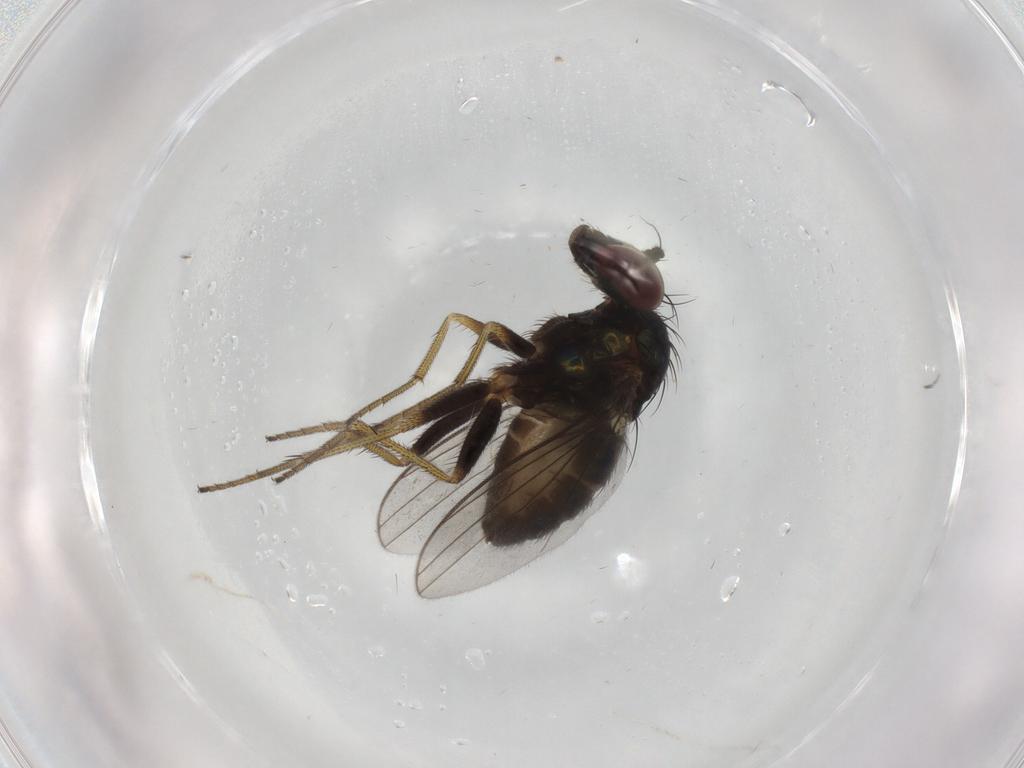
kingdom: Animalia
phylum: Arthropoda
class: Insecta
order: Diptera
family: Dolichopodidae
